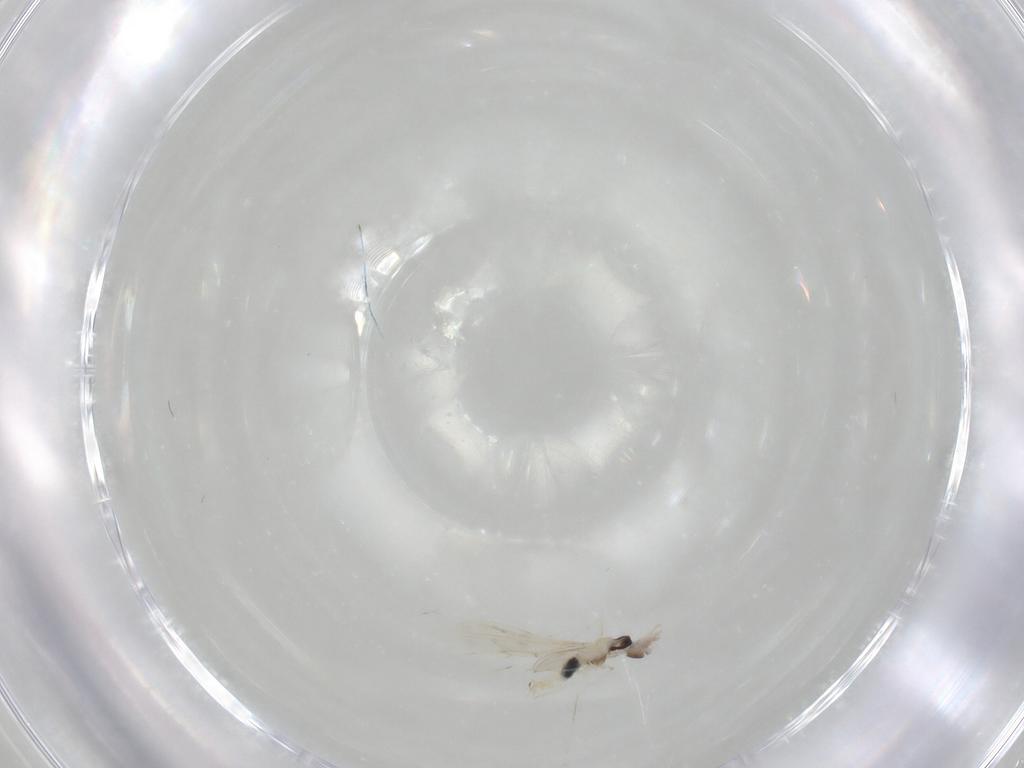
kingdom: Animalia
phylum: Arthropoda
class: Insecta
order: Diptera
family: Cecidomyiidae
